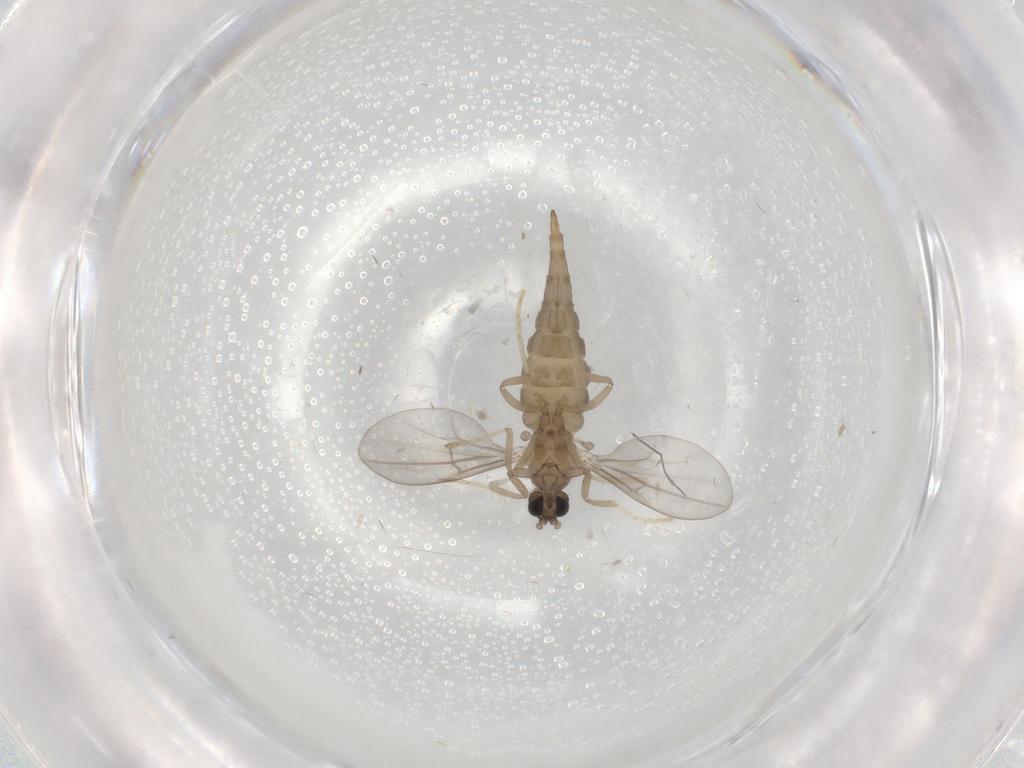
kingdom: Animalia
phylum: Arthropoda
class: Insecta
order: Diptera
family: Cecidomyiidae
